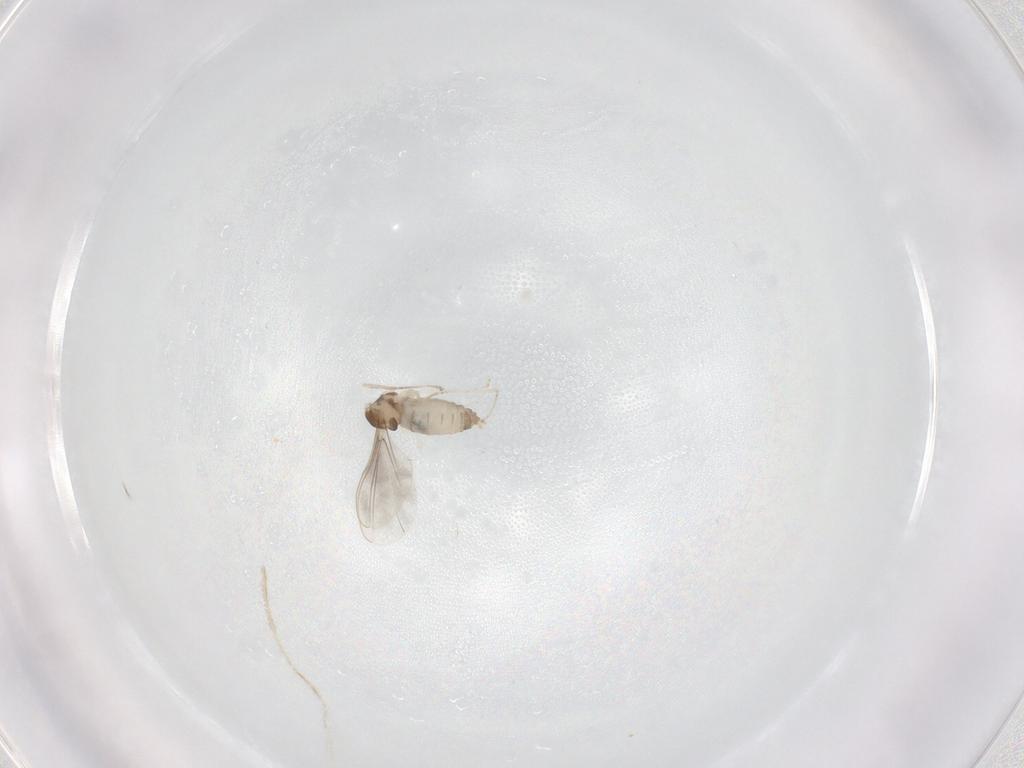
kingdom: Animalia
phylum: Arthropoda
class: Insecta
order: Diptera
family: Cecidomyiidae
